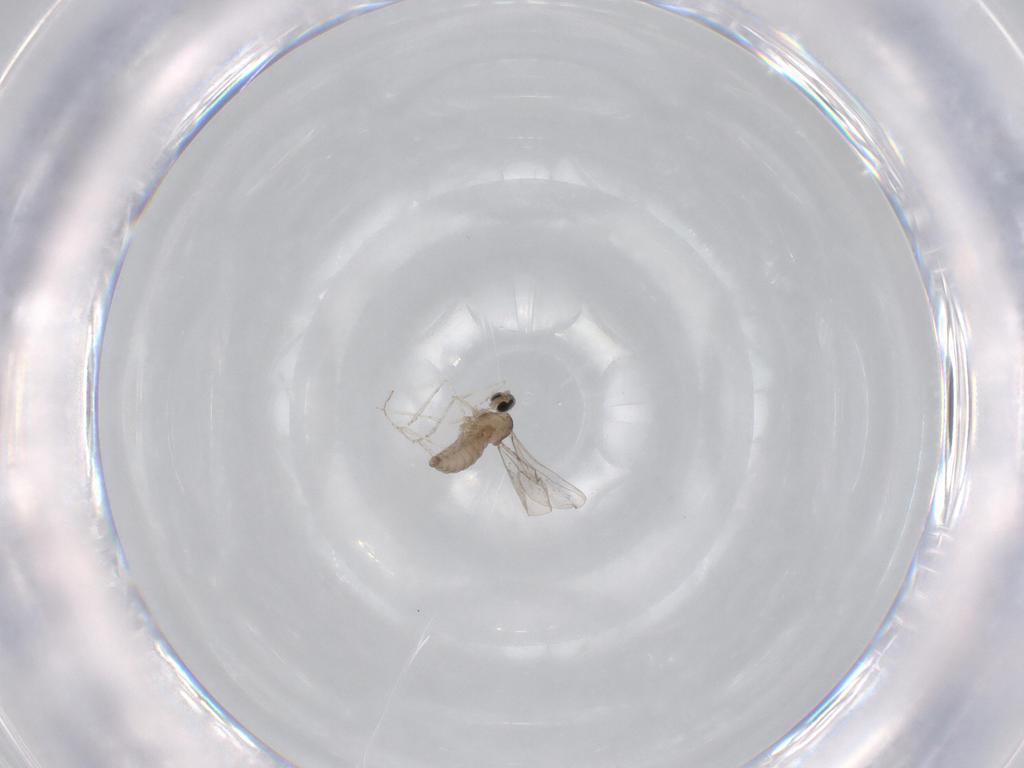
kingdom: Animalia
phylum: Arthropoda
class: Insecta
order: Diptera
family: Cecidomyiidae
